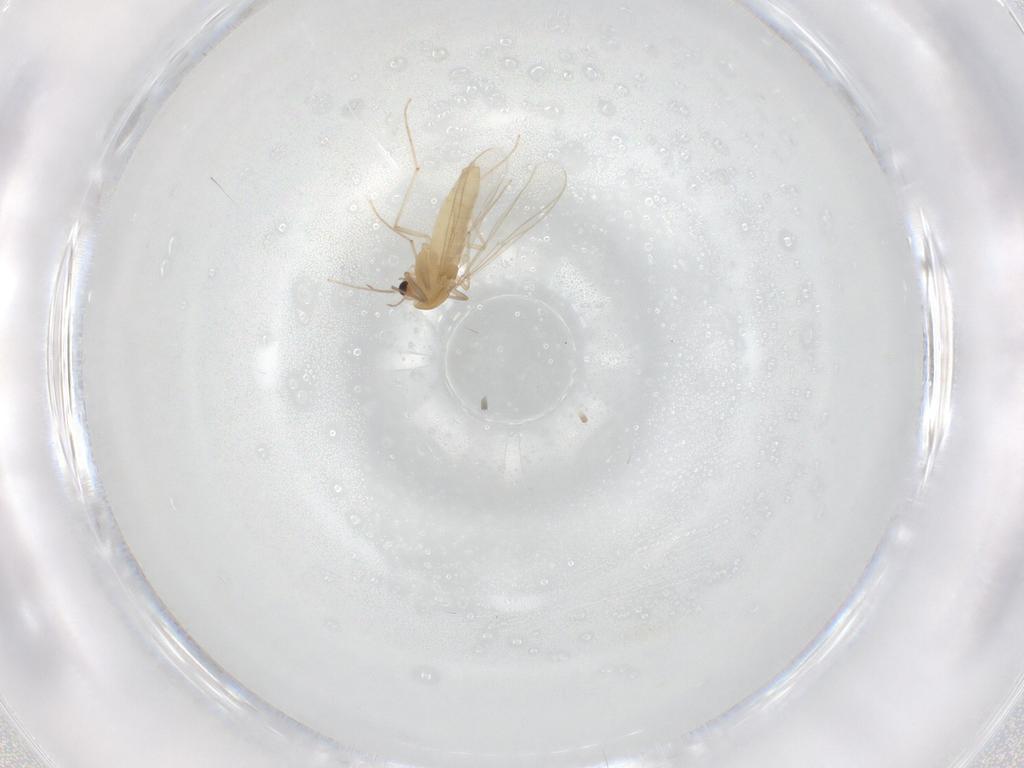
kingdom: Animalia
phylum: Arthropoda
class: Insecta
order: Diptera
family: Chironomidae
